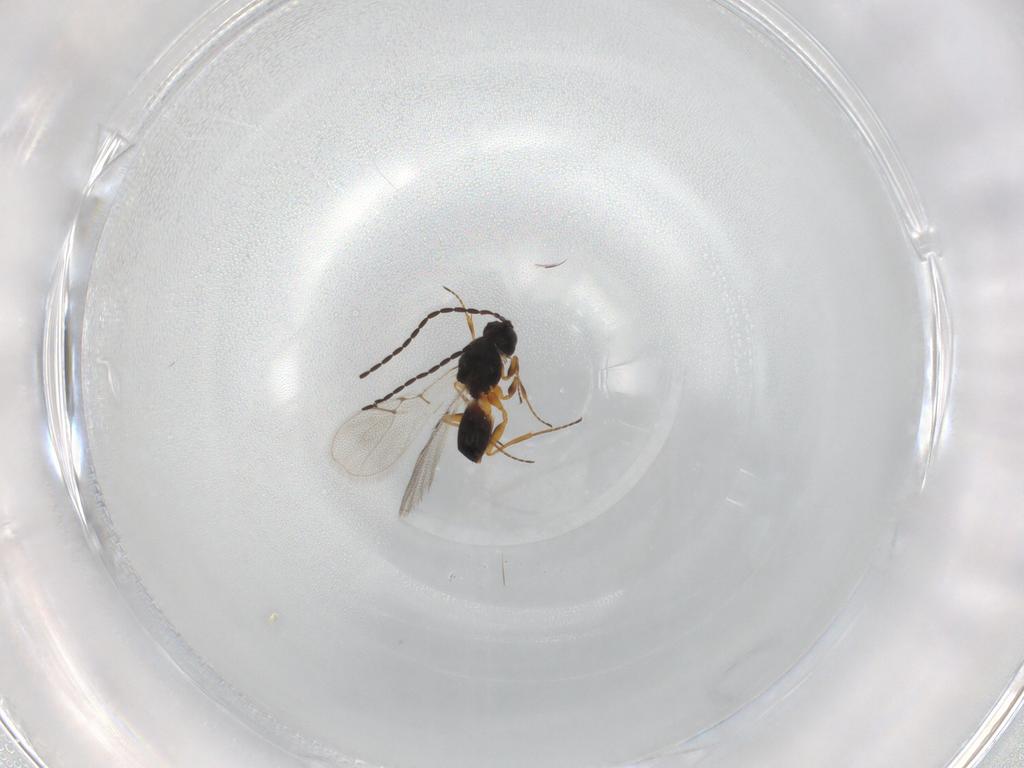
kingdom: Animalia
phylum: Arthropoda
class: Insecta
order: Hymenoptera
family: Figitidae
